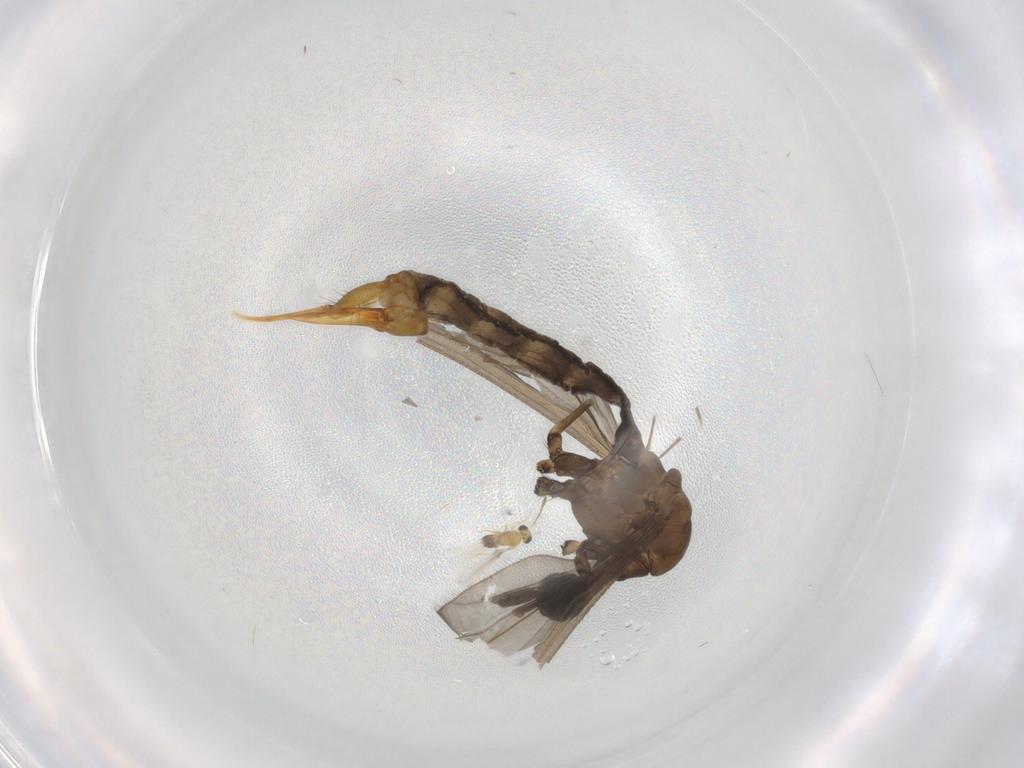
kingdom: Animalia
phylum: Arthropoda
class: Insecta
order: Diptera
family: Limoniidae
